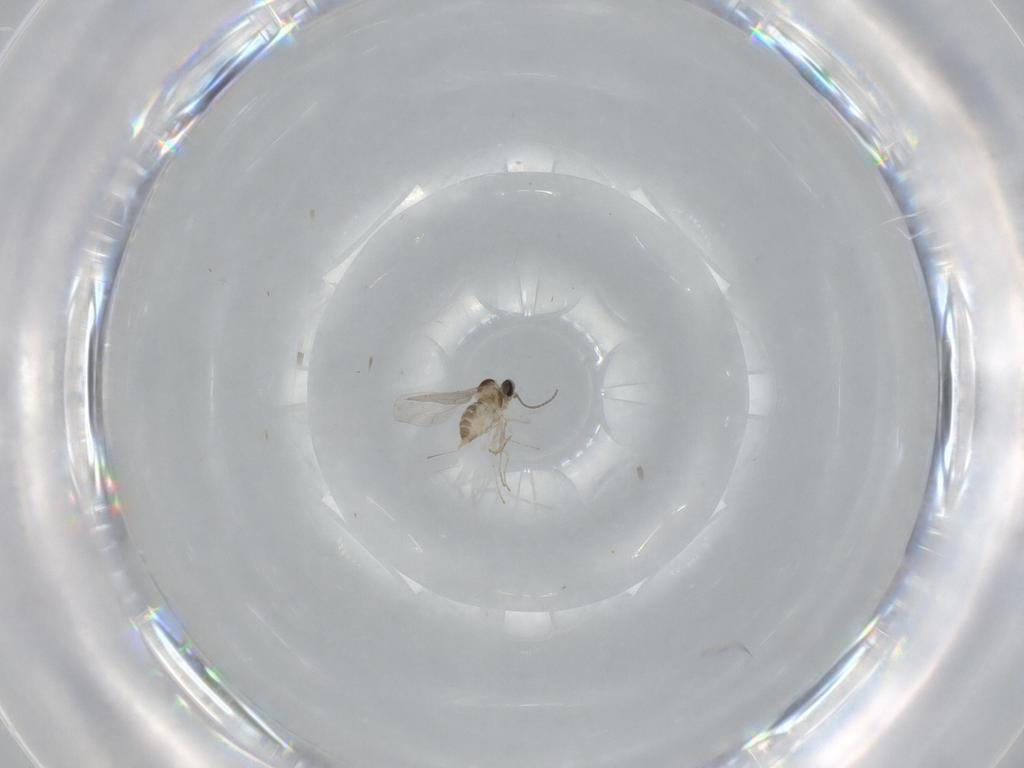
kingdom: Animalia
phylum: Arthropoda
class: Insecta
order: Diptera
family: Cecidomyiidae
